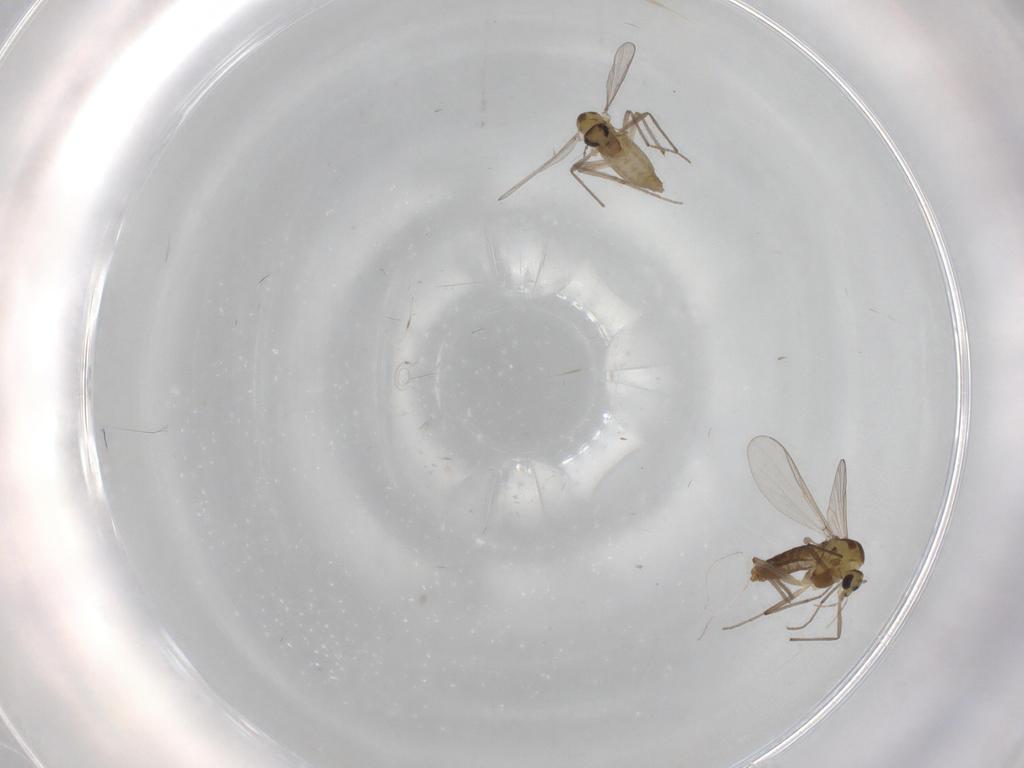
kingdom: Animalia
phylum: Arthropoda
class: Insecta
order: Diptera
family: Chironomidae
